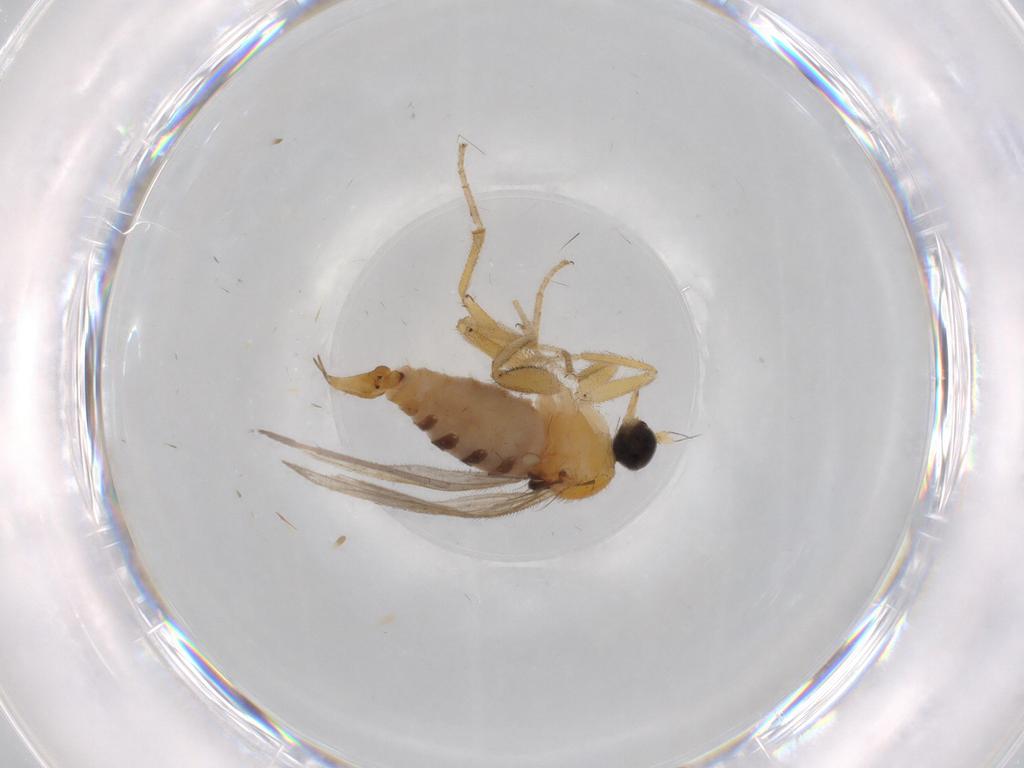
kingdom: Animalia
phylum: Arthropoda
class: Insecta
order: Diptera
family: Hybotidae
